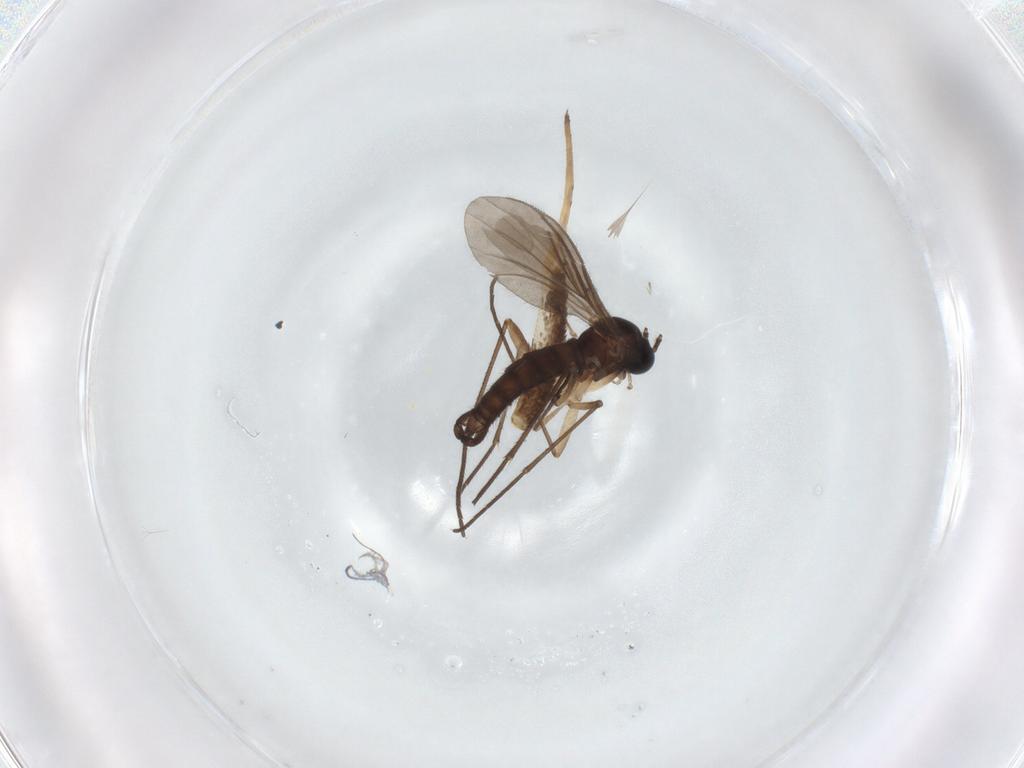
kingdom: Animalia
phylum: Arthropoda
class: Insecta
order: Diptera
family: Sciaridae
